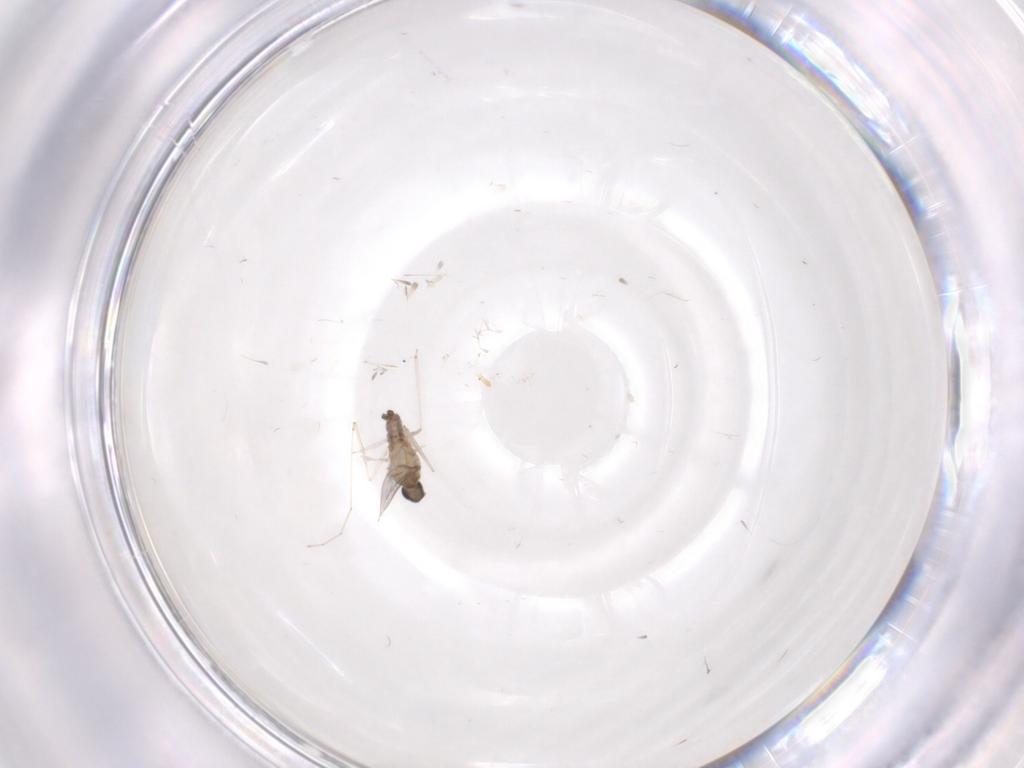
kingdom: Animalia
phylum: Arthropoda
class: Insecta
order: Diptera
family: Cecidomyiidae
